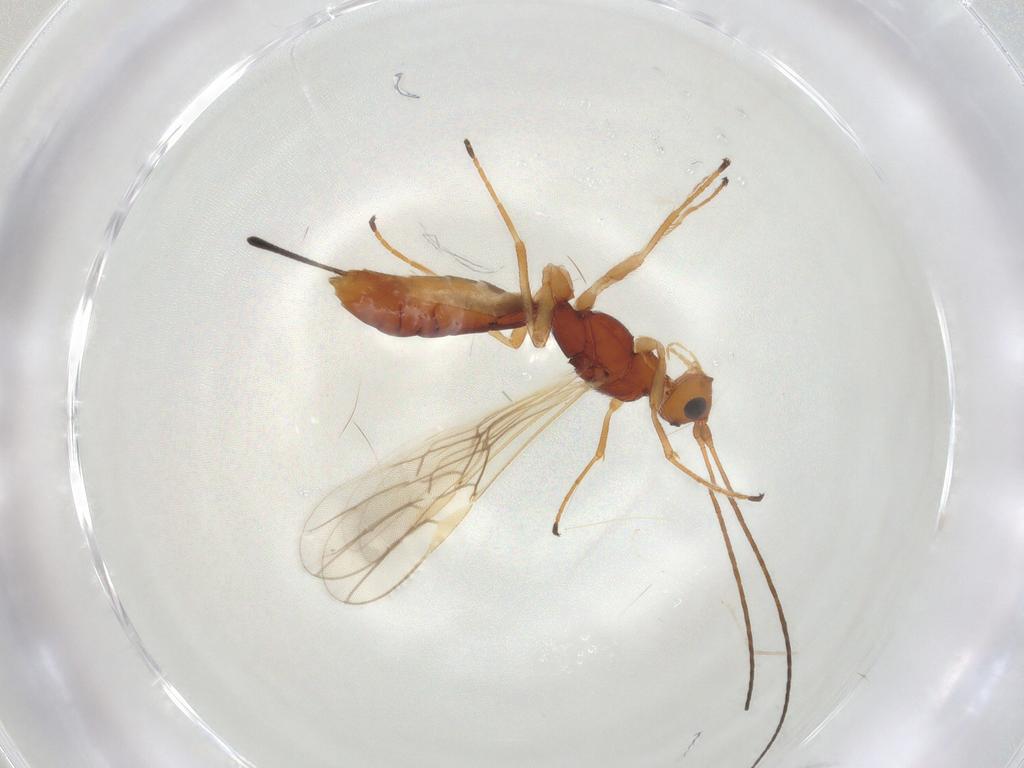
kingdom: Animalia
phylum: Arthropoda
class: Insecta
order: Hymenoptera
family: Braconidae
